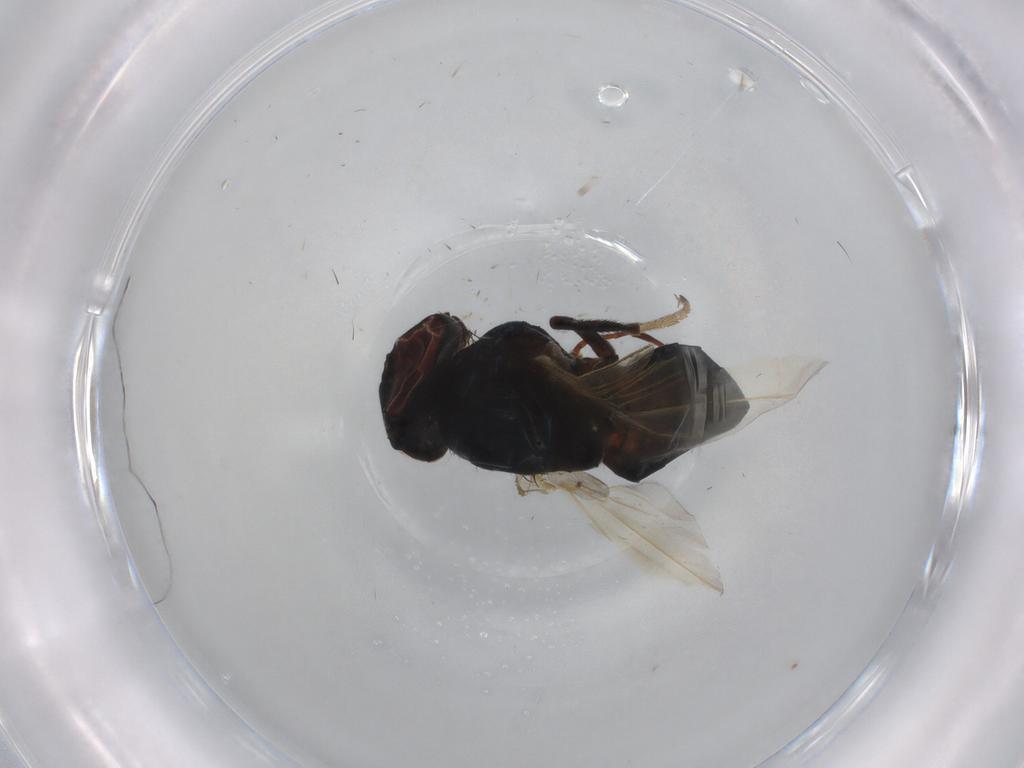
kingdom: Animalia
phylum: Arthropoda
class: Insecta
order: Diptera
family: Lonchaeidae
